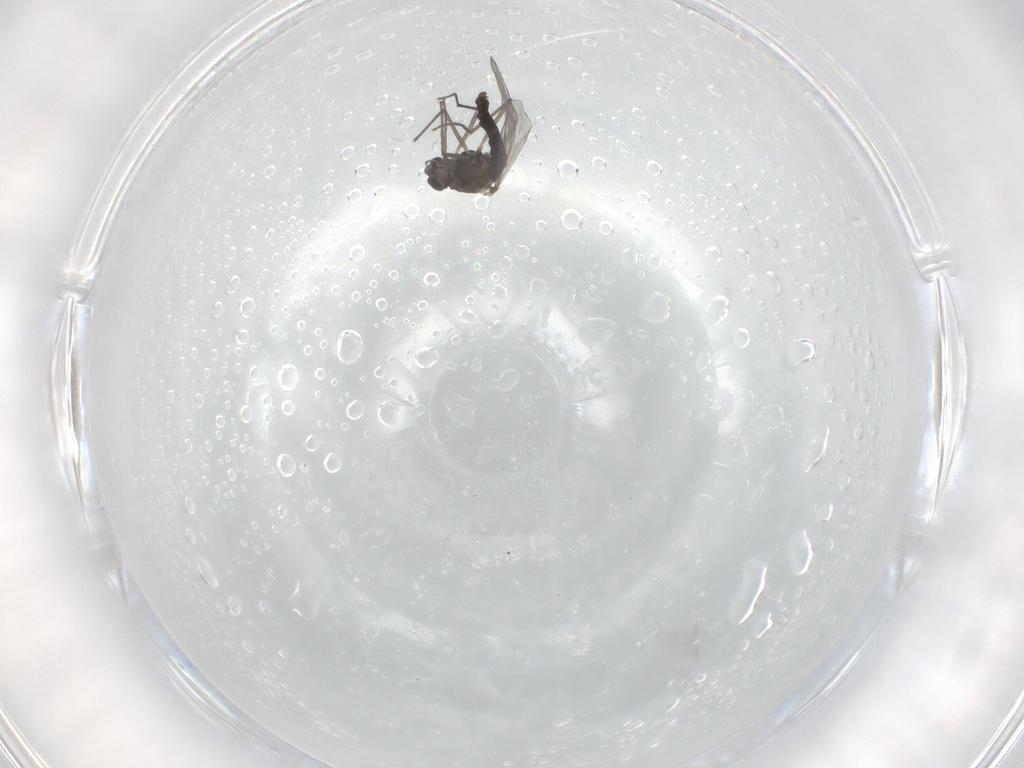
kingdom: Animalia
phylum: Arthropoda
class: Insecta
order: Diptera
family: Chironomidae
